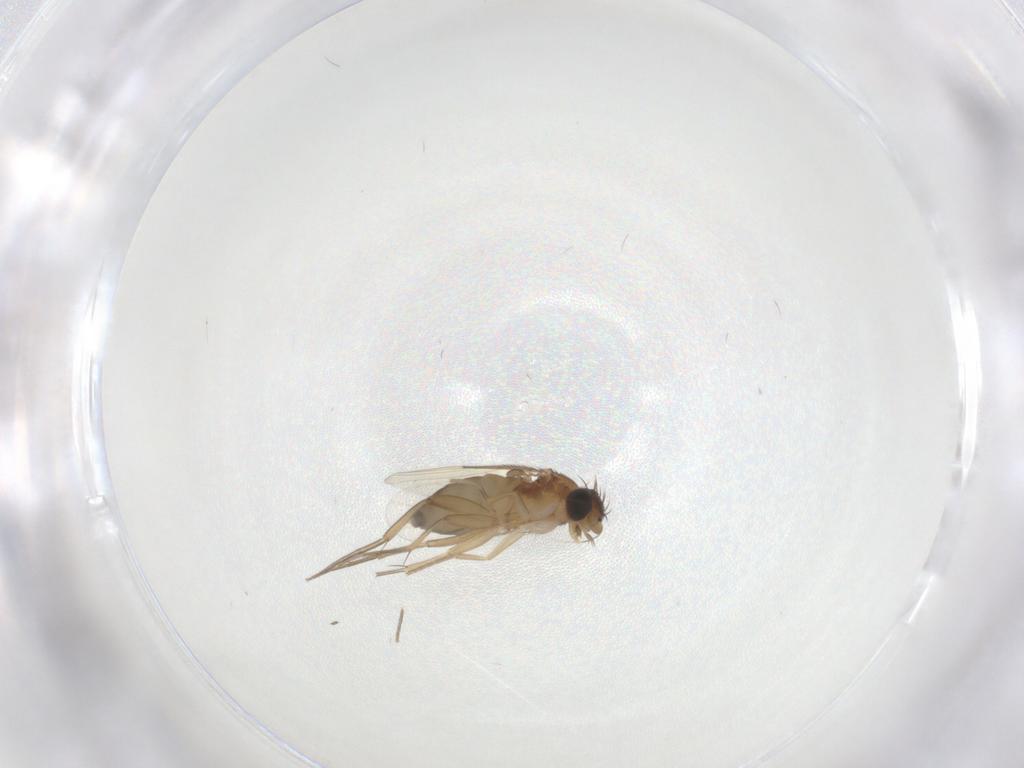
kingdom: Animalia
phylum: Arthropoda
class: Insecta
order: Diptera
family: Phoridae
